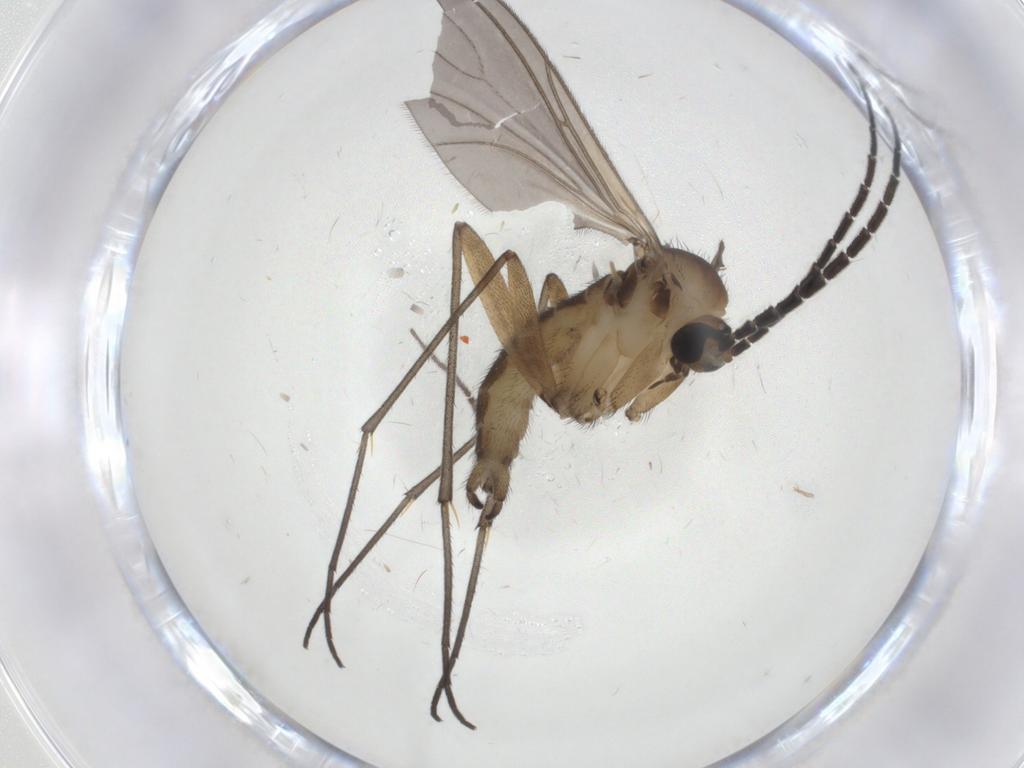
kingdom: Animalia
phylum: Arthropoda
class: Insecta
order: Diptera
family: Sciaridae
